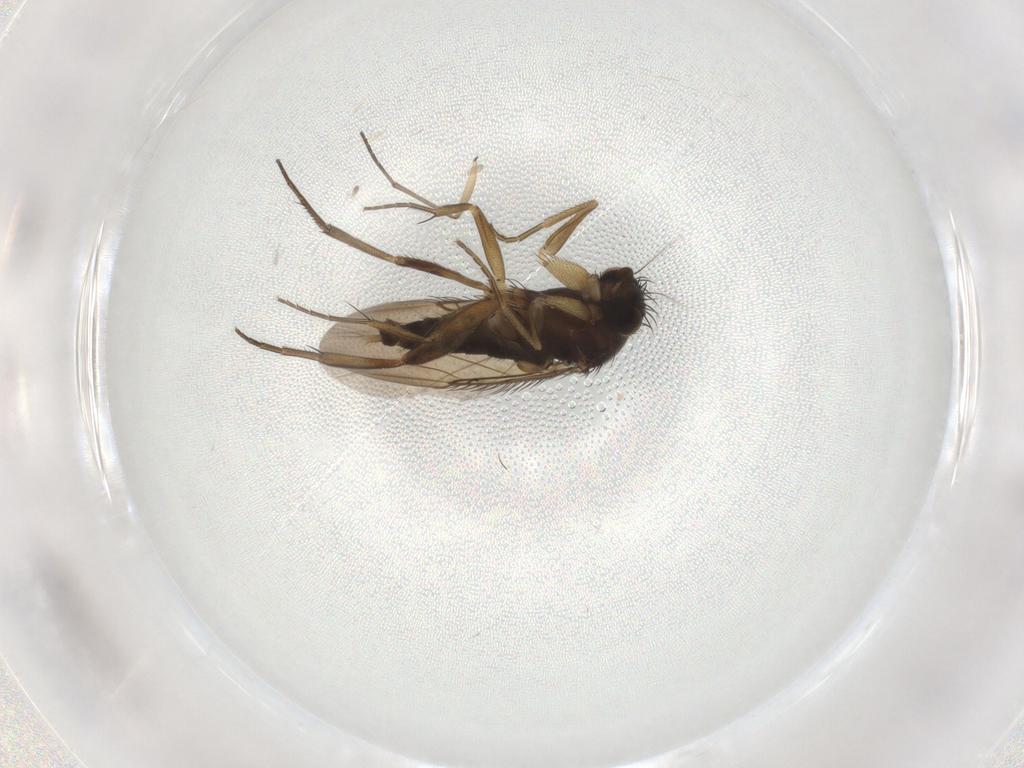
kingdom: Animalia
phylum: Arthropoda
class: Insecta
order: Diptera
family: Phoridae
